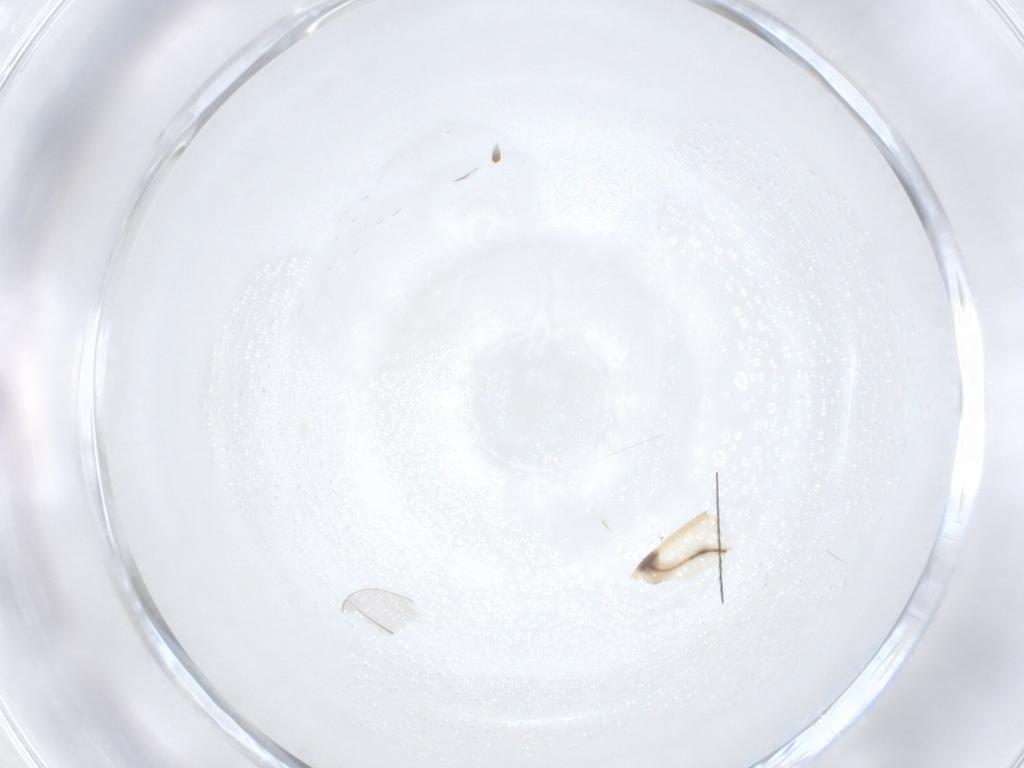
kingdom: Animalia
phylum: Arthropoda
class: Insecta
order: Psocodea
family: Ptiloneuridae
